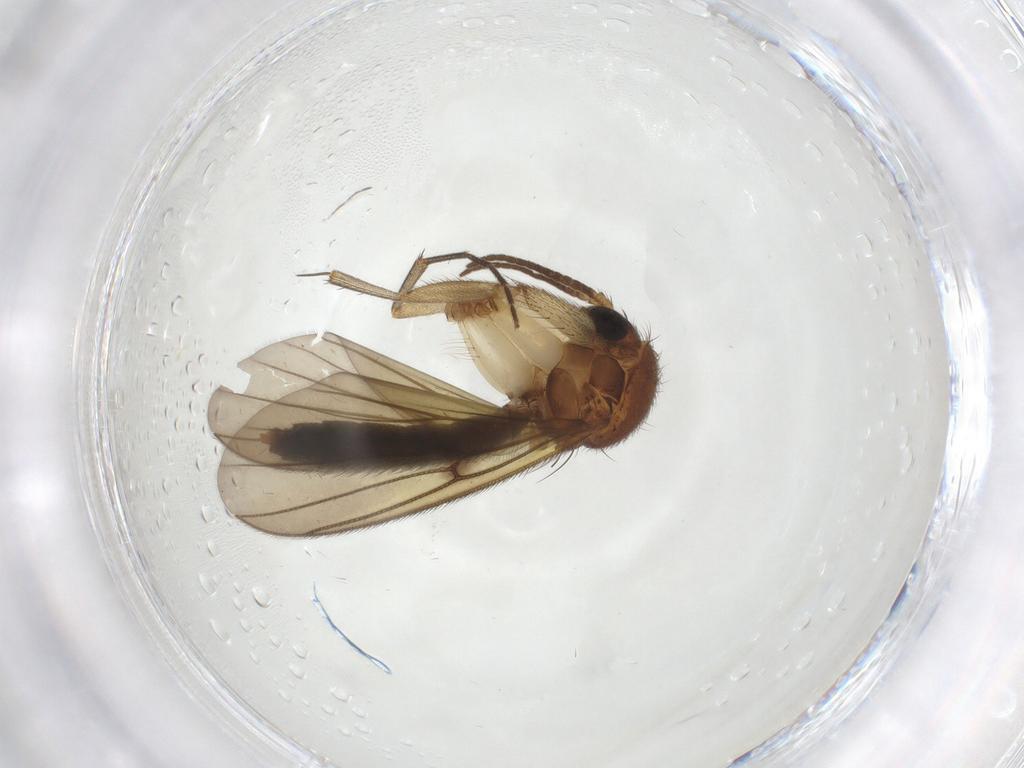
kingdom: Animalia
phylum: Arthropoda
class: Insecta
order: Diptera
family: Mycetophilidae
